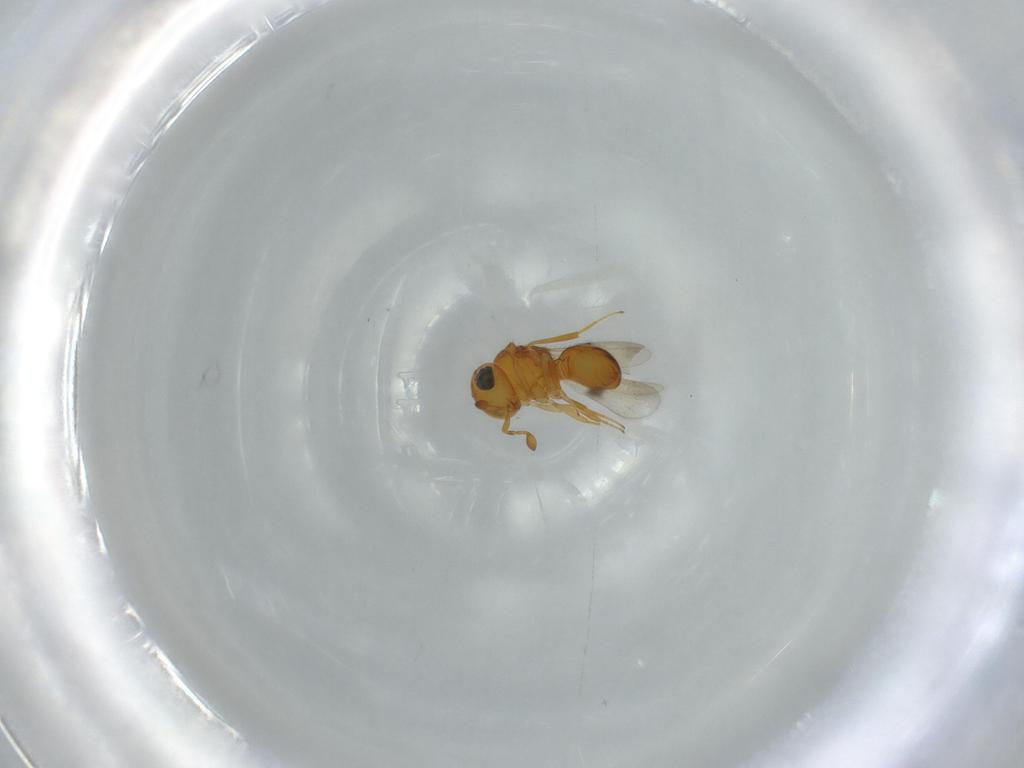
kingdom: Animalia
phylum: Arthropoda
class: Insecta
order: Hymenoptera
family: Scelionidae
